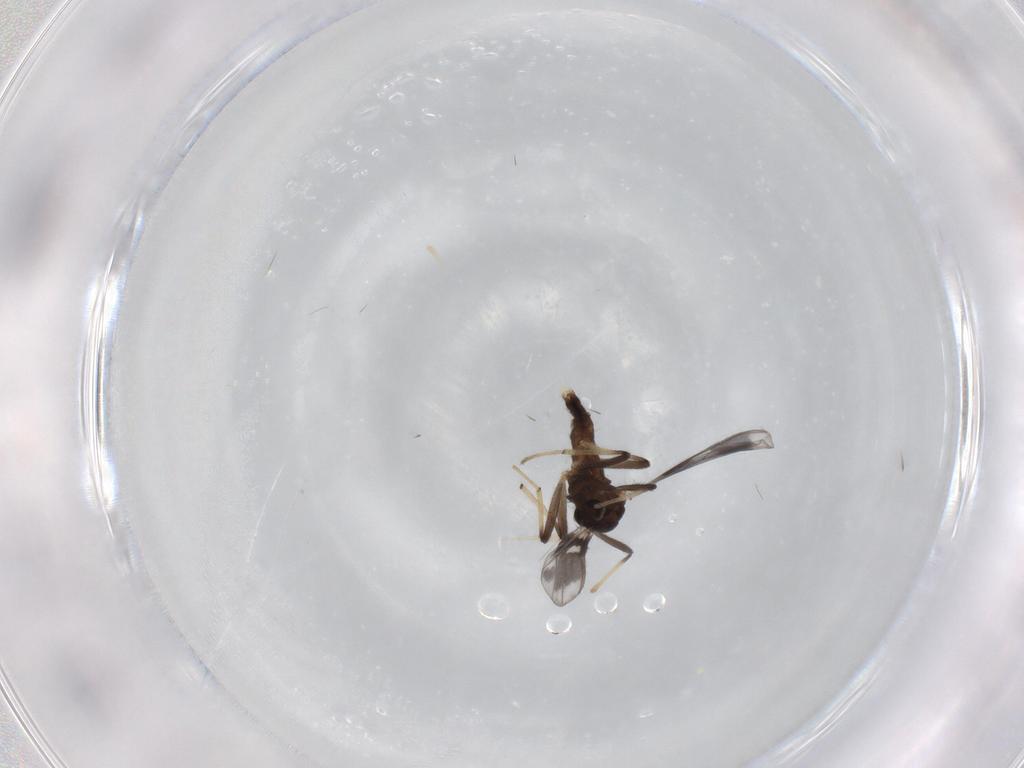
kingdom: Animalia
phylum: Arthropoda
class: Insecta
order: Diptera
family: Chironomidae
